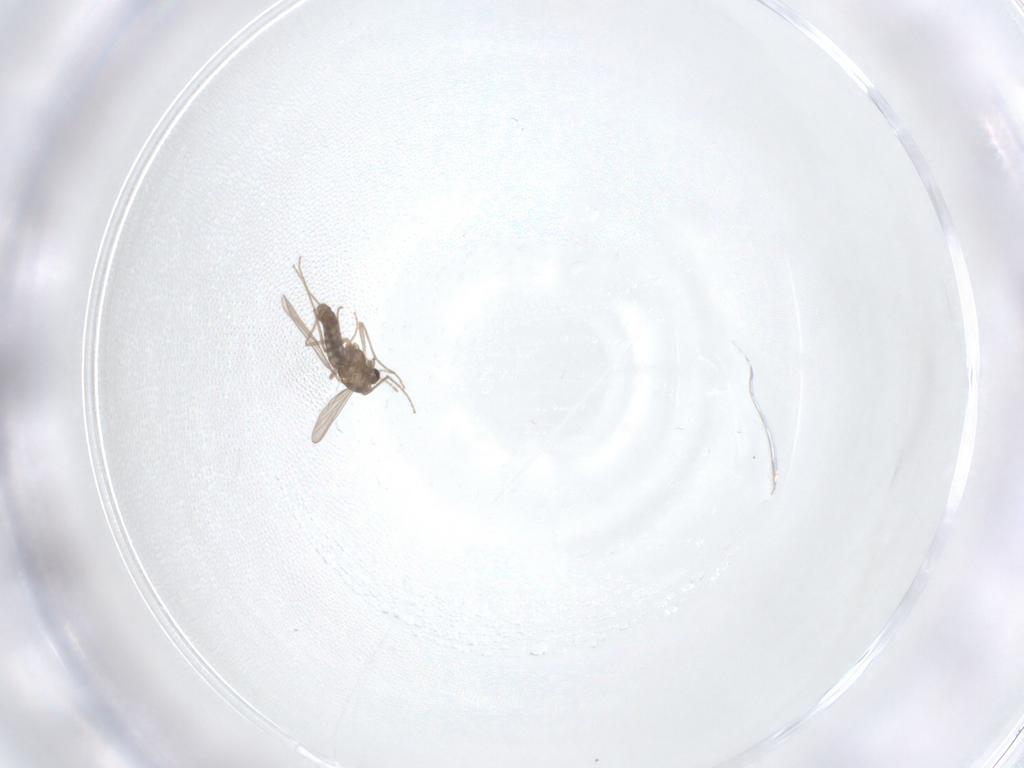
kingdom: Animalia
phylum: Arthropoda
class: Insecta
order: Diptera
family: Chironomidae
